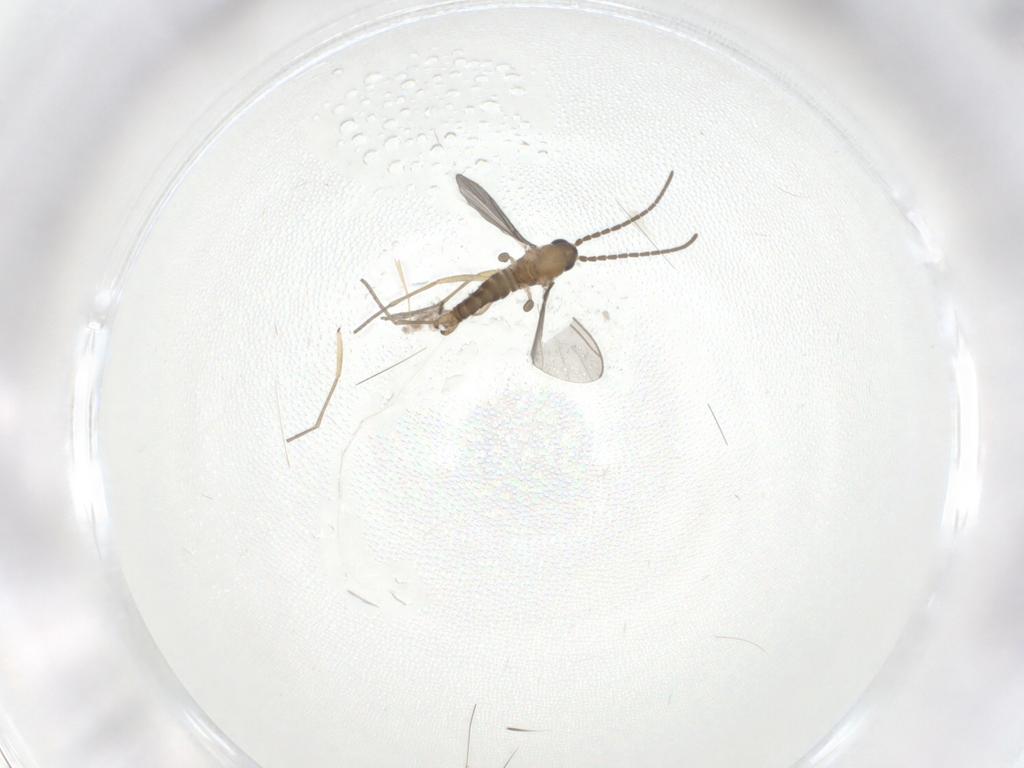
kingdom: Animalia
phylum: Arthropoda
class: Insecta
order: Diptera
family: Sciaridae
